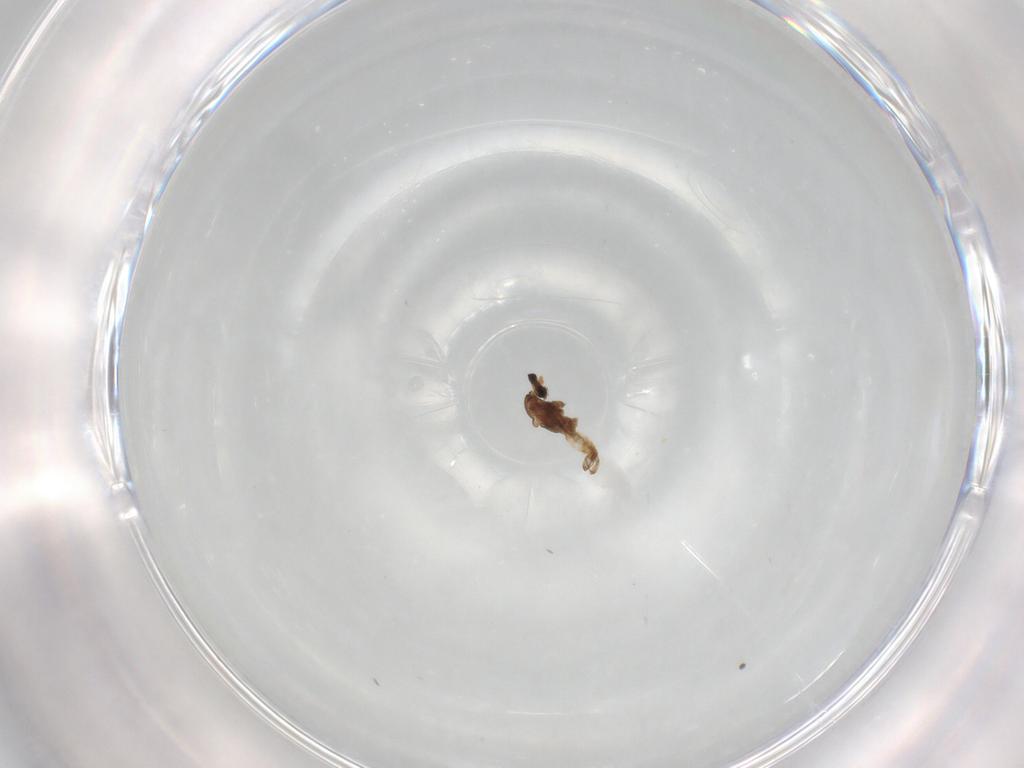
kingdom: Animalia
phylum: Arthropoda
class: Insecta
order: Diptera
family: Cecidomyiidae
